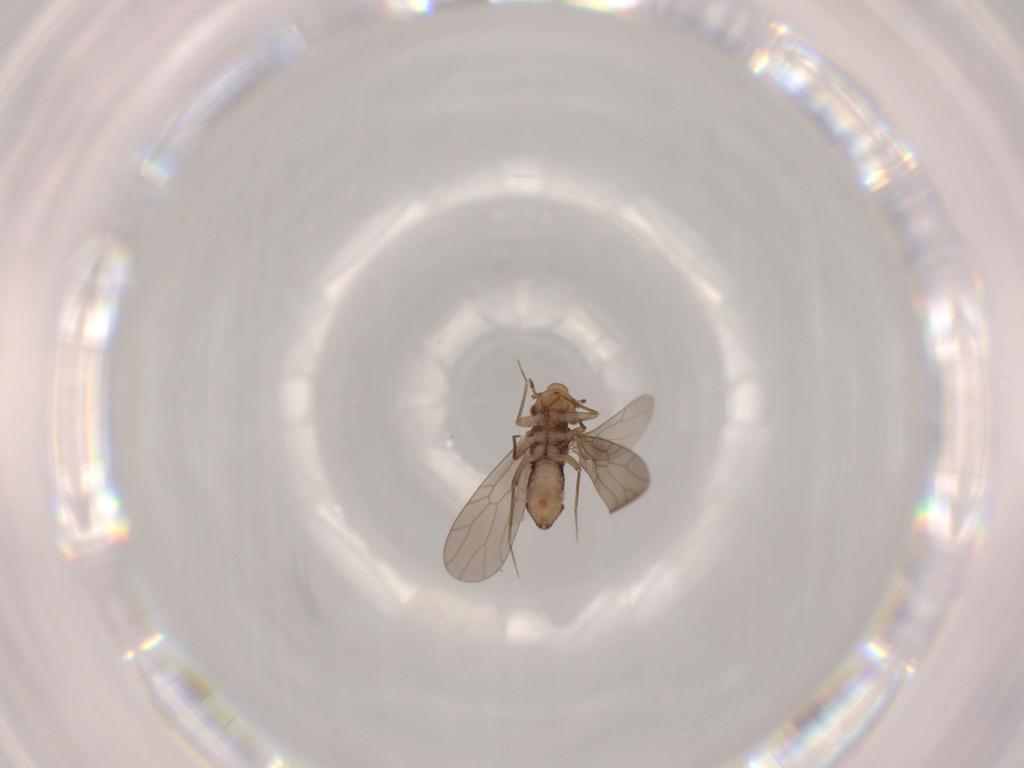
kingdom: Animalia
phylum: Arthropoda
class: Insecta
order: Psocodea
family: Lepidopsocidae
